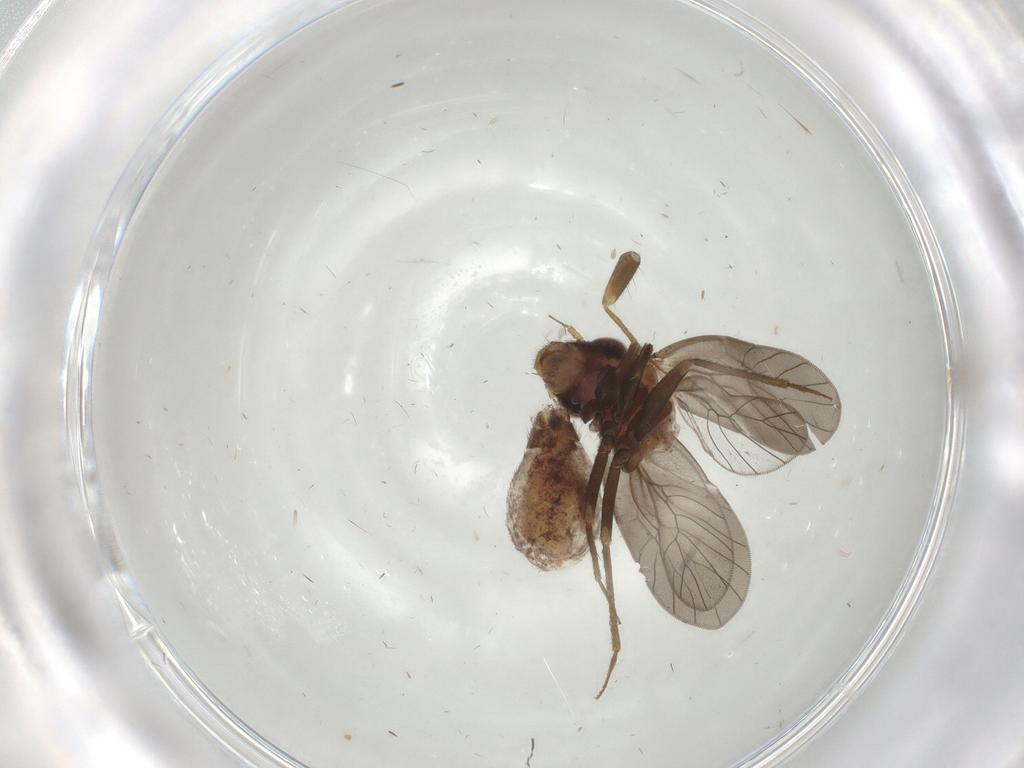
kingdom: Animalia
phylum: Arthropoda
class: Insecta
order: Psocodea
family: Lepidopsocidae
